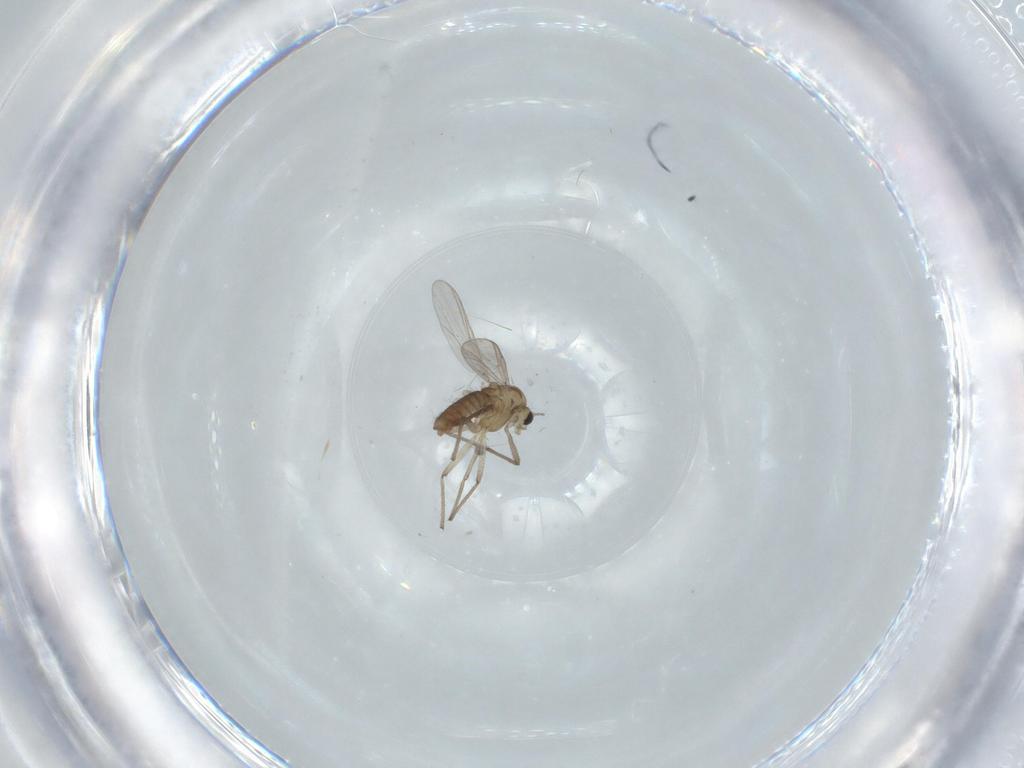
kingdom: Animalia
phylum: Arthropoda
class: Insecta
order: Diptera
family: Chironomidae
